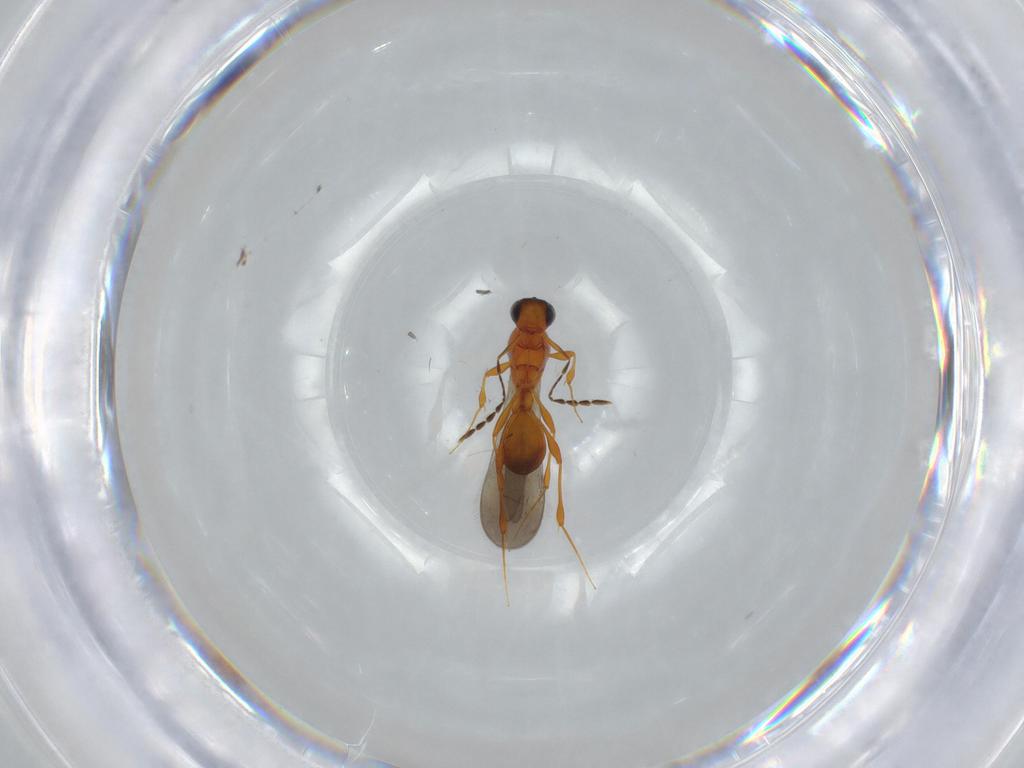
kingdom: Animalia
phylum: Arthropoda
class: Insecta
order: Hymenoptera
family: Platygastridae
